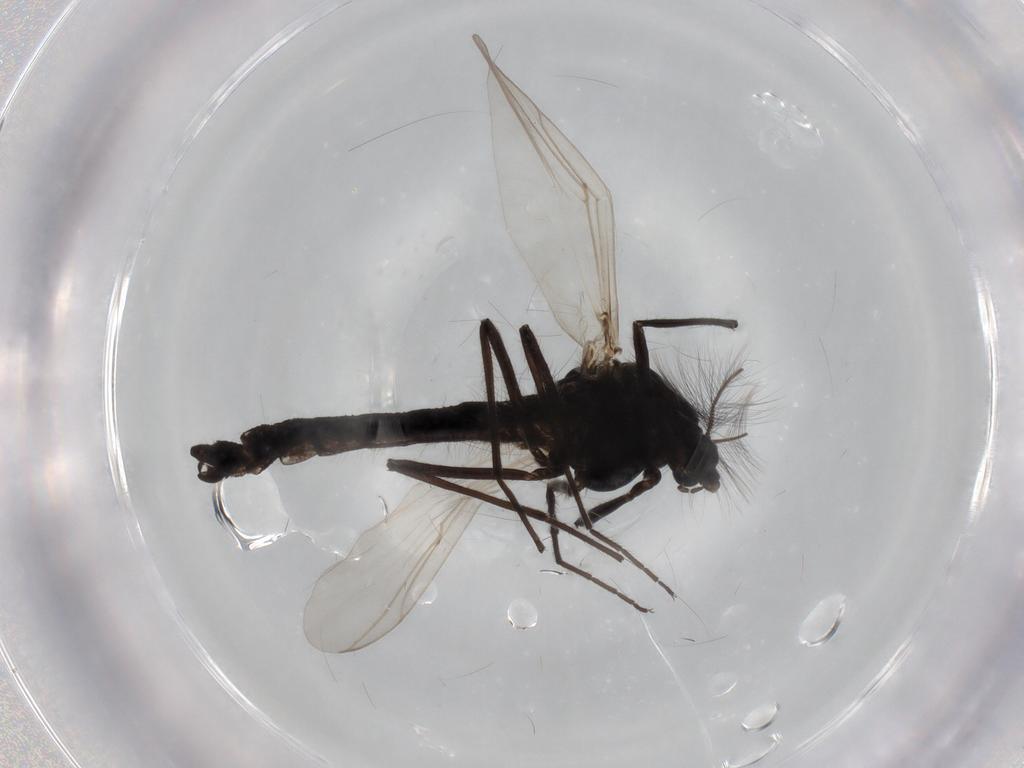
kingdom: Animalia
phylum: Arthropoda
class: Insecta
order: Diptera
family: Chironomidae
